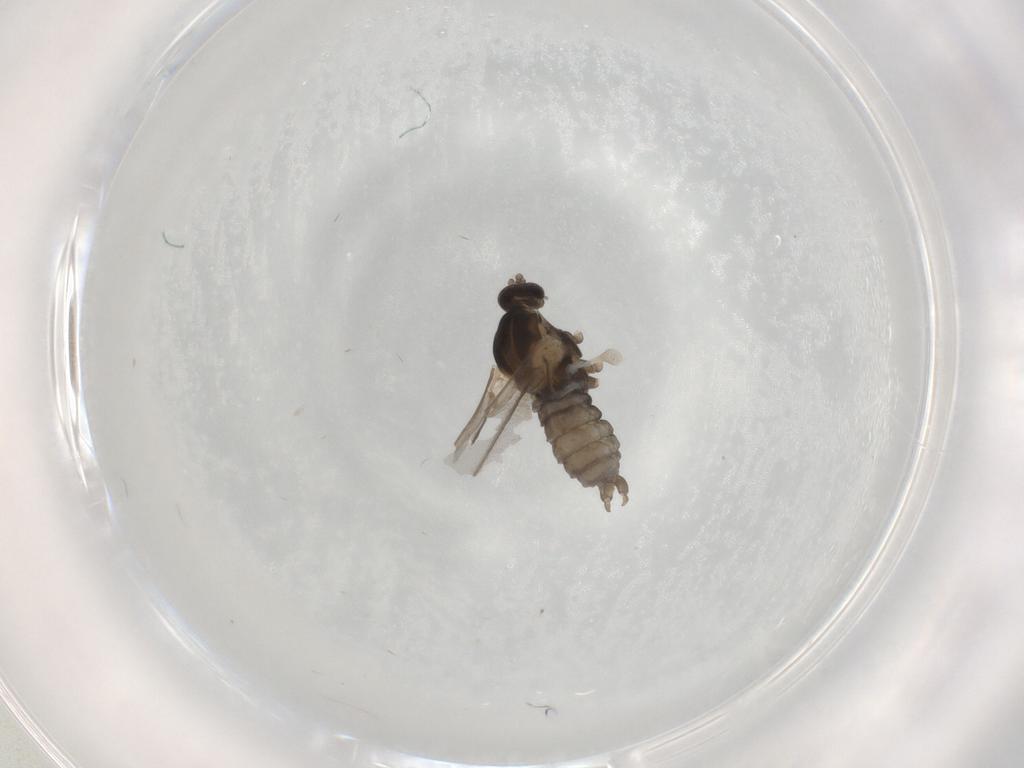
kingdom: Animalia
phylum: Arthropoda
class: Insecta
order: Diptera
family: Cecidomyiidae
